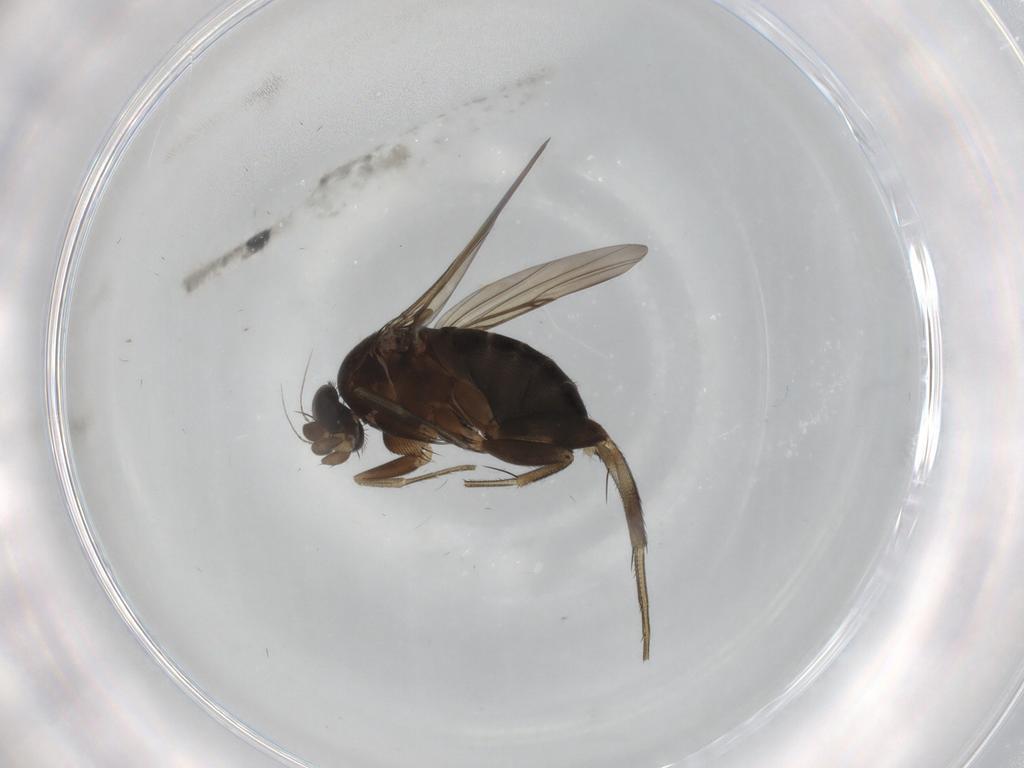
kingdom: Animalia
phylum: Arthropoda
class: Insecta
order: Diptera
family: Phoridae
